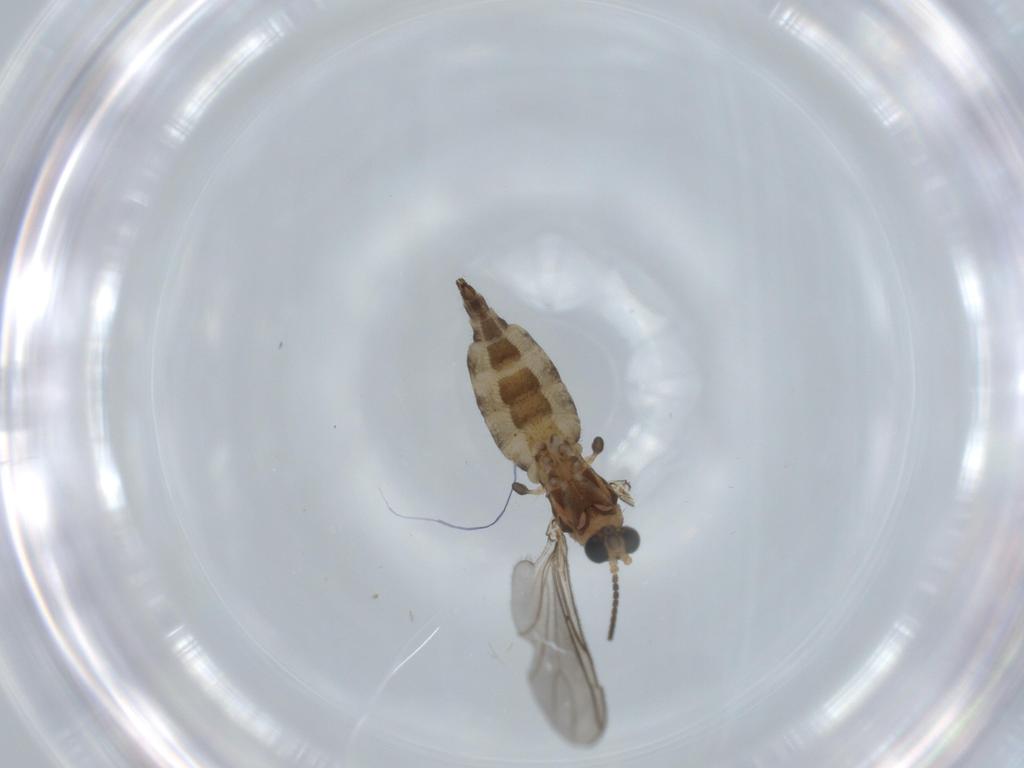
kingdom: Animalia
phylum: Arthropoda
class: Insecta
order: Diptera
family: Sciaridae
